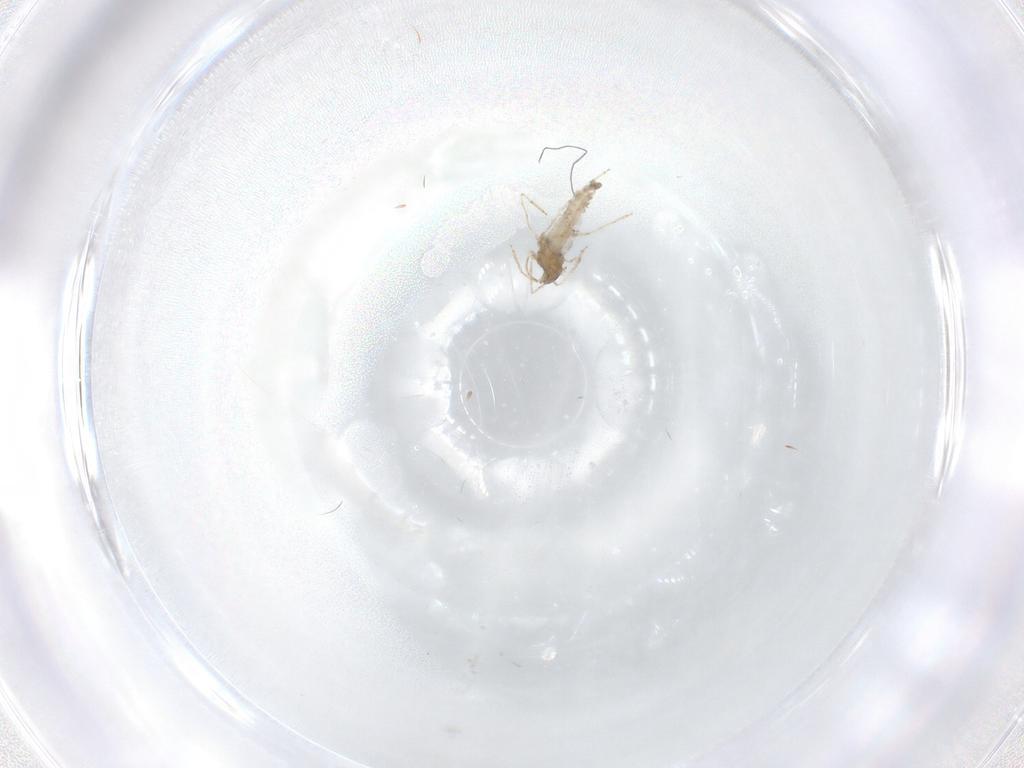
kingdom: Animalia
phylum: Arthropoda
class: Insecta
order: Diptera
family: Cecidomyiidae
